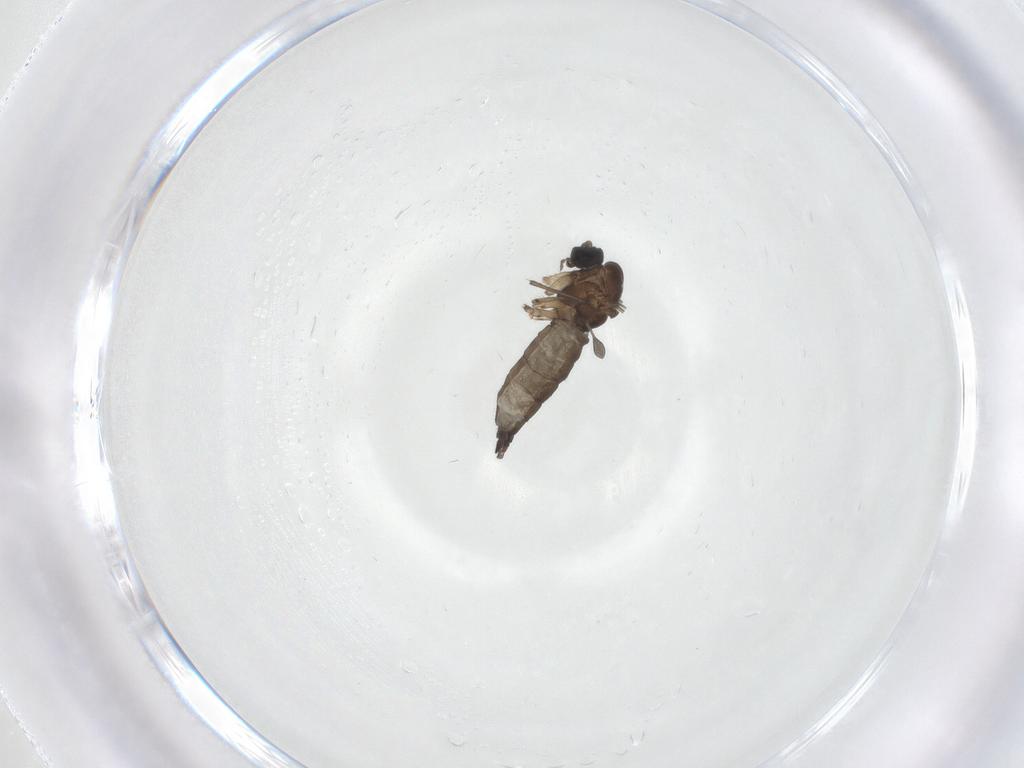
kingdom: Animalia
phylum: Arthropoda
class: Insecta
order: Diptera
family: Sciaridae
